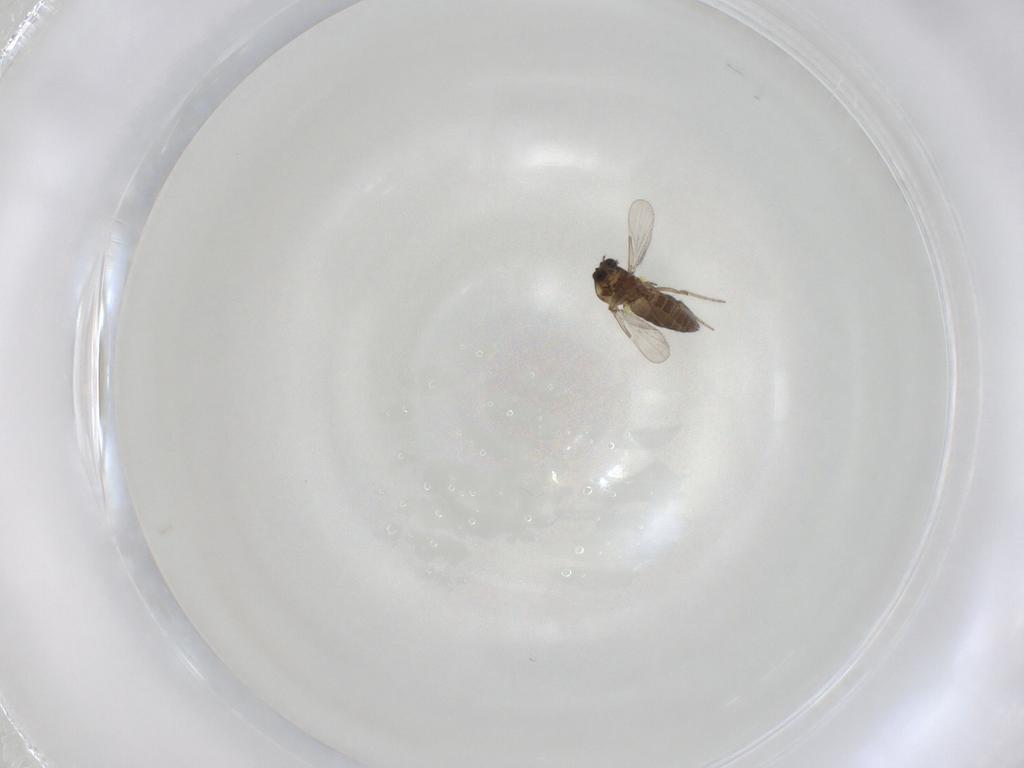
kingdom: Animalia
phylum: Arthropoda
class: Insecta
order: Diptera
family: Ceratopogonidae
